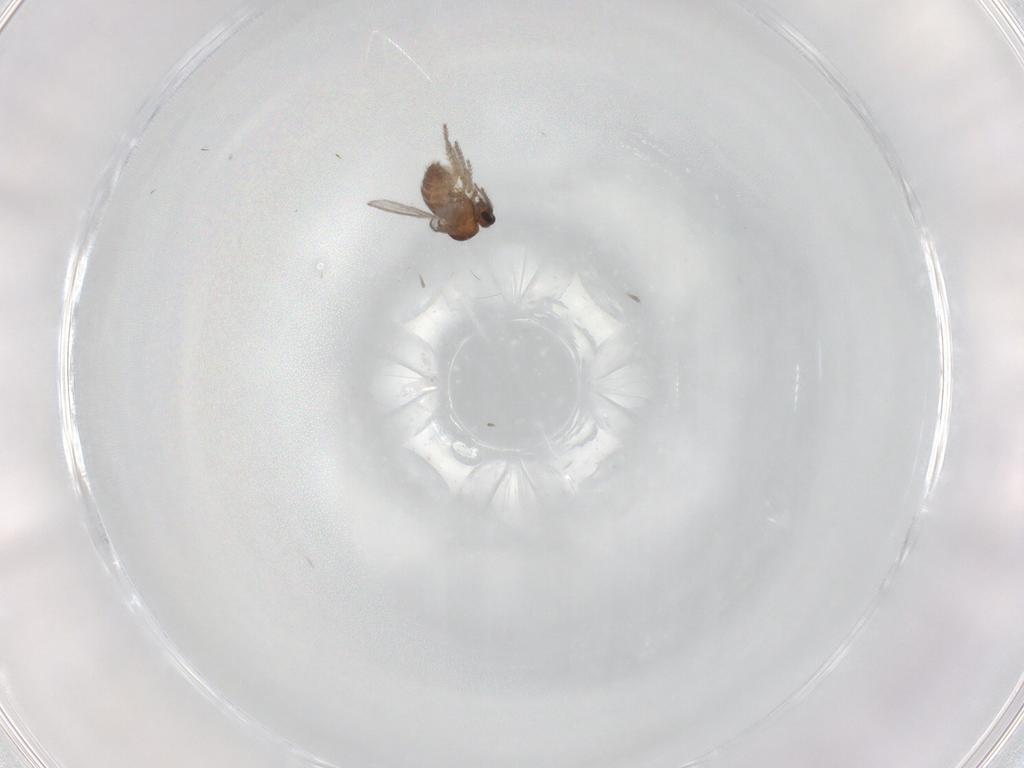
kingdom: Animalia
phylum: Arthropoda
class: Insecta
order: Diptera
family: Ceratopogonidae
